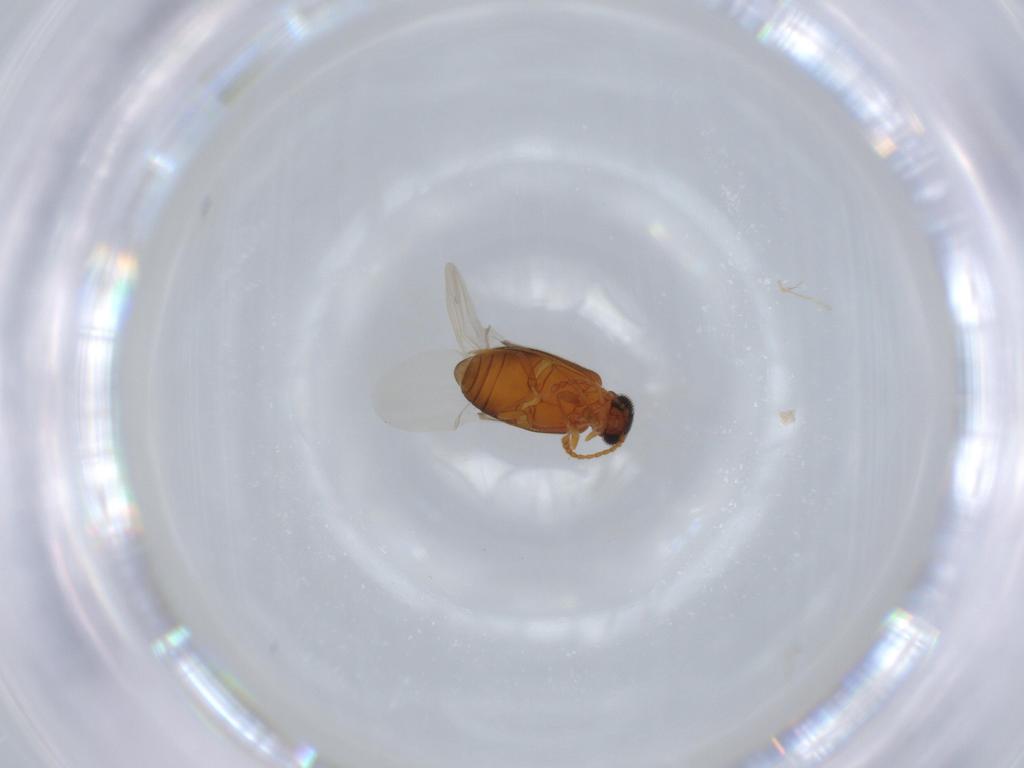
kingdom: Animalia
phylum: Arthropoda
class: Insecta
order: Coleoptera
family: Aderidae
